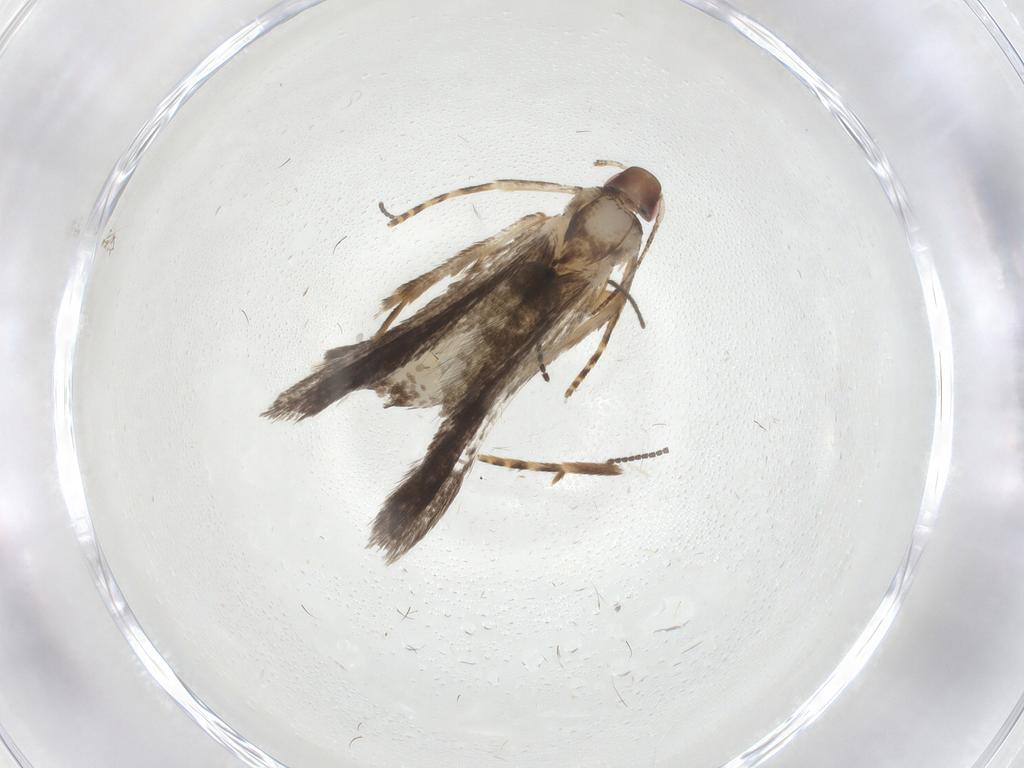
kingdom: Animalia
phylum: Arthropoda
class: Insecta
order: Lepidoptera
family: Gelechiidae
